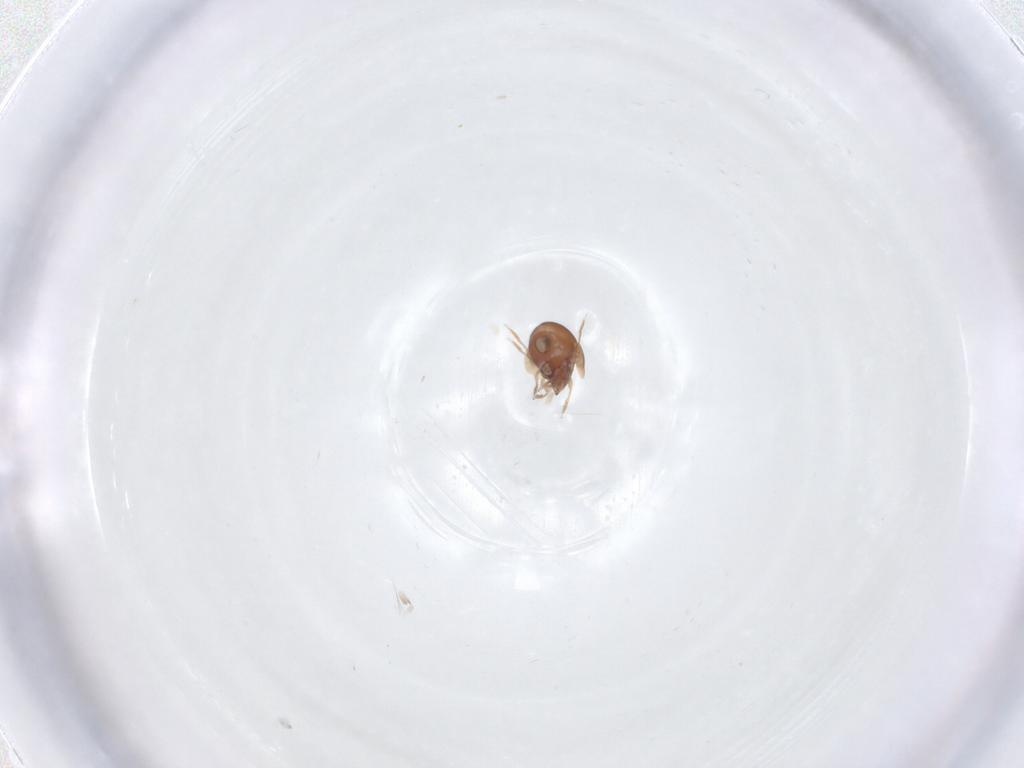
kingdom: Animalia
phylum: Arthropoda
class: Arachnida
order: Sarcoptiformes
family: Galumnidae
